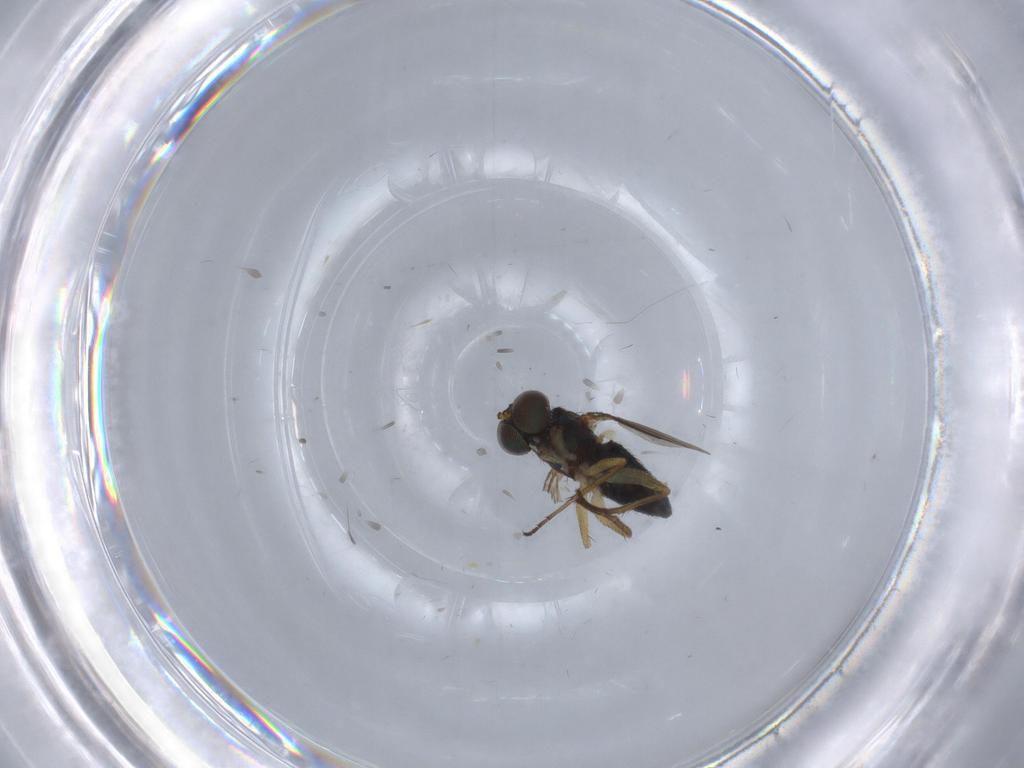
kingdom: Animalia
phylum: Arthropoda
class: Insecta
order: Diptera
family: Dolichopodidae
